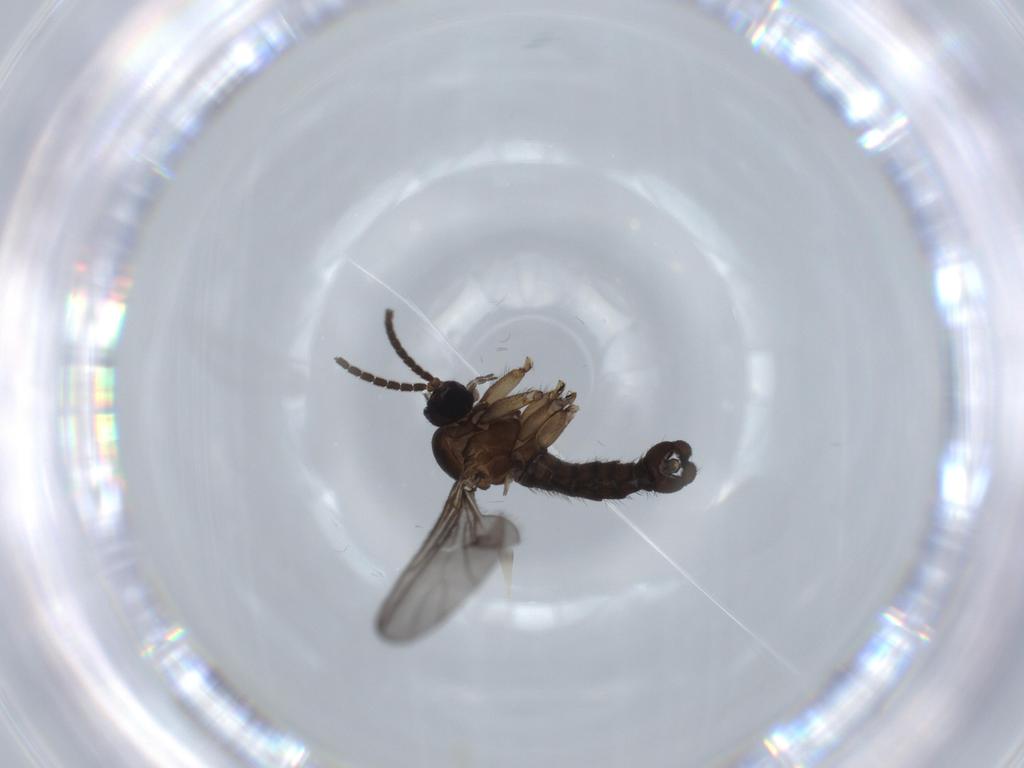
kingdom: Animalia
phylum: Arthropoda
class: Insecta
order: Diptera
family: Sciaridae
